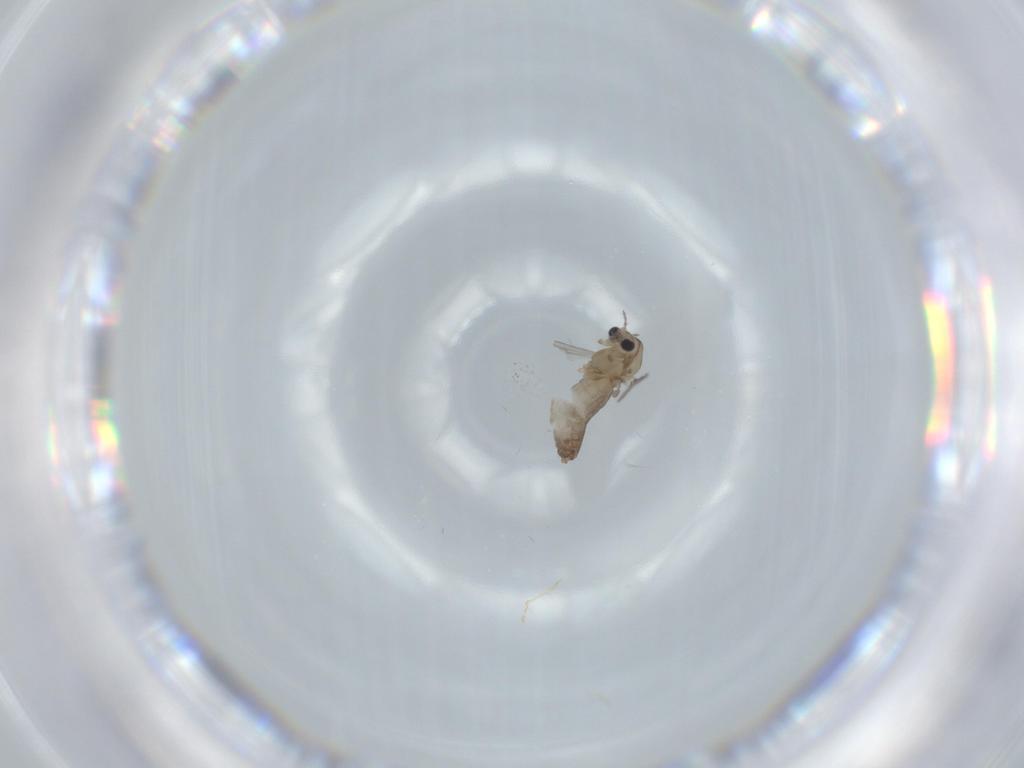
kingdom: Animalia
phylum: Arthropoda
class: Insecta
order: Diptera
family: Chironomidae
